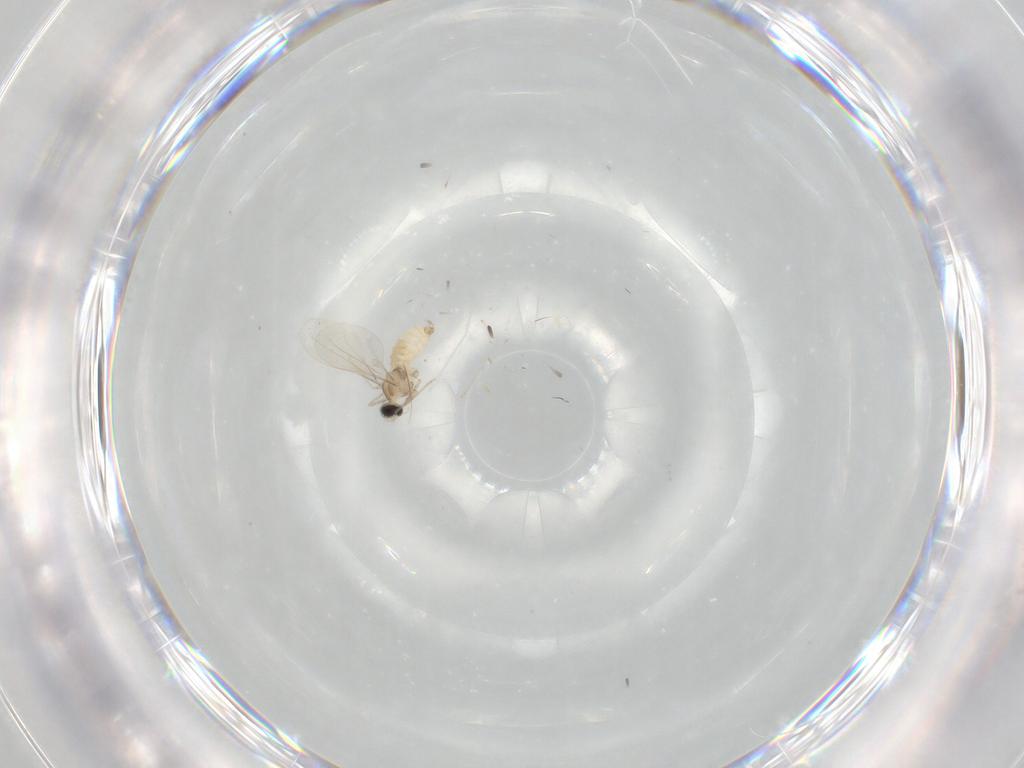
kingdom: Animalia
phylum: Arthropoda
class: Insecta
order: Diptera
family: Cecidomyiidae
